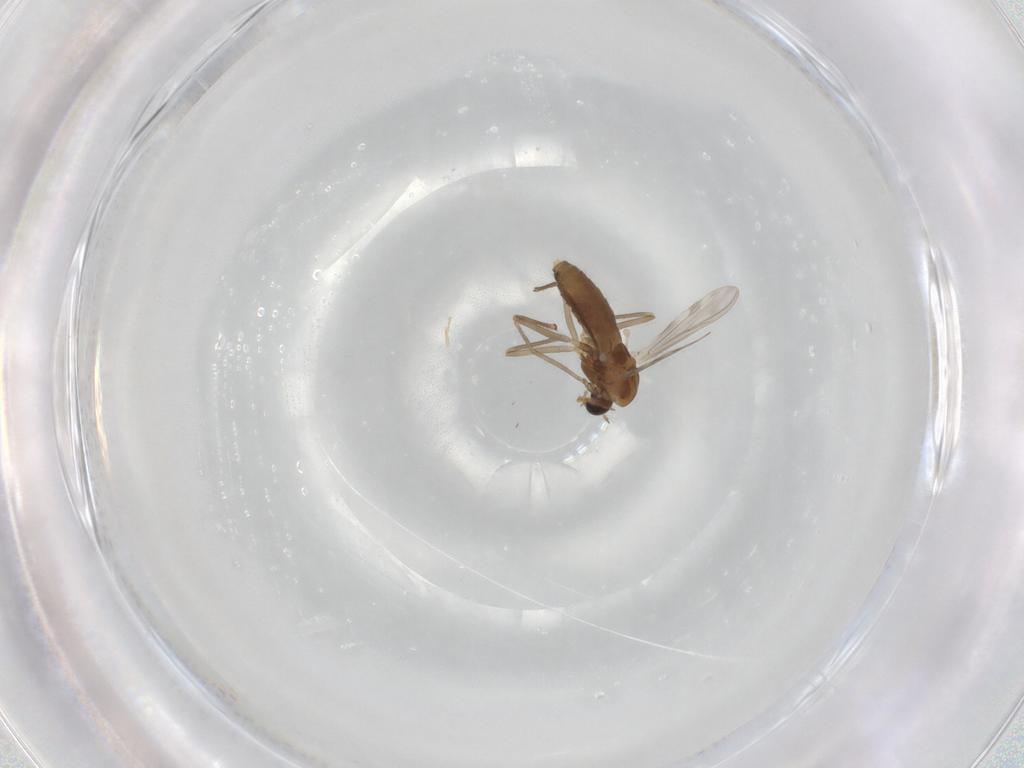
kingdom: Animalia
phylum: Arthropoda
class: Insecta
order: Diptera
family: Chironomidae
